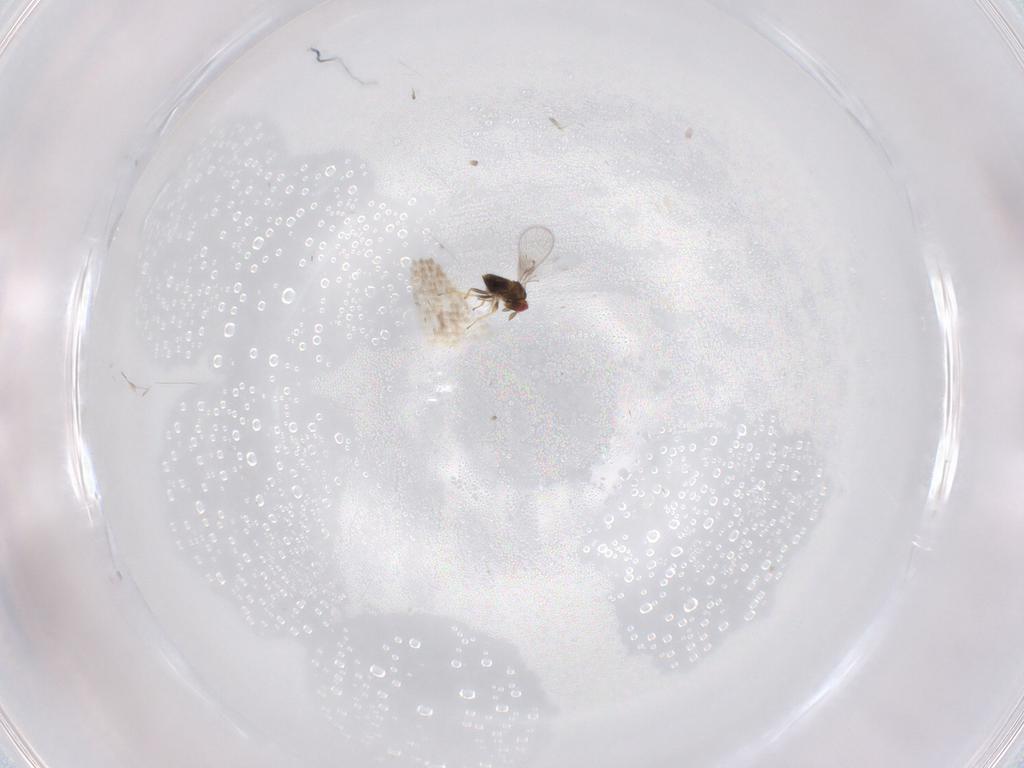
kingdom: Animalia
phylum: Arthropoda
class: Insecta
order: Hymenoptera
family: Trichogrammatidae
